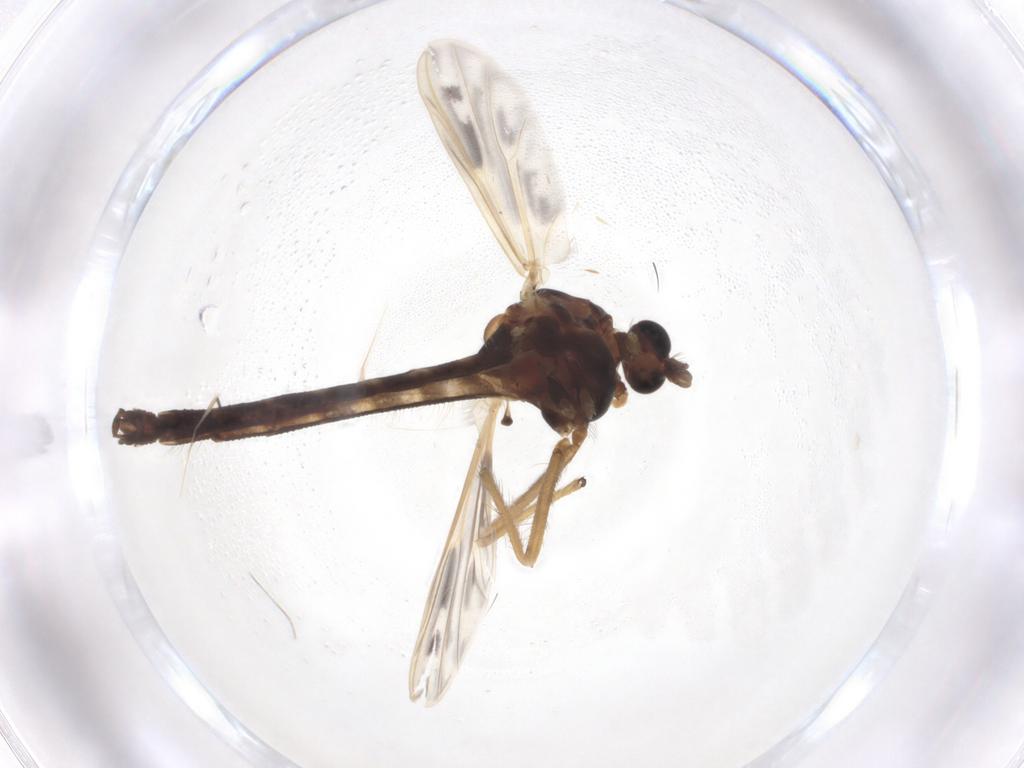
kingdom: Animalia
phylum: Arthropoda
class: Insecta
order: Diptera
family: Chironomidae
